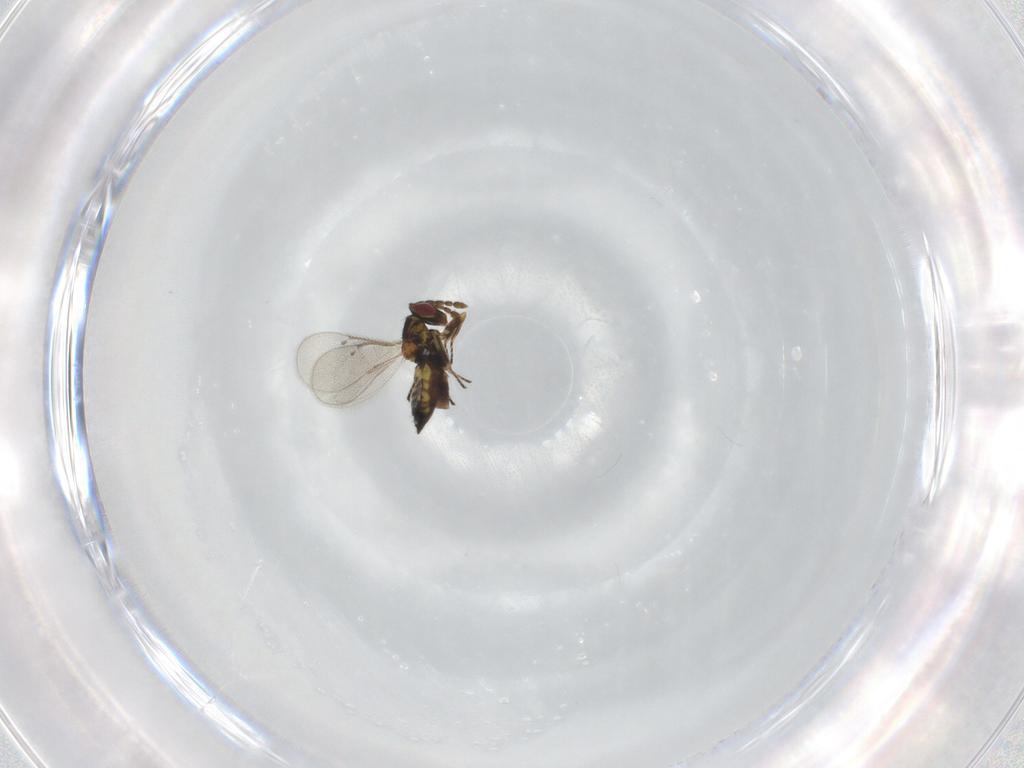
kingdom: Animalia
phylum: Arthropoda
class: Insecta
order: Hymenoptera
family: Eulophidae
